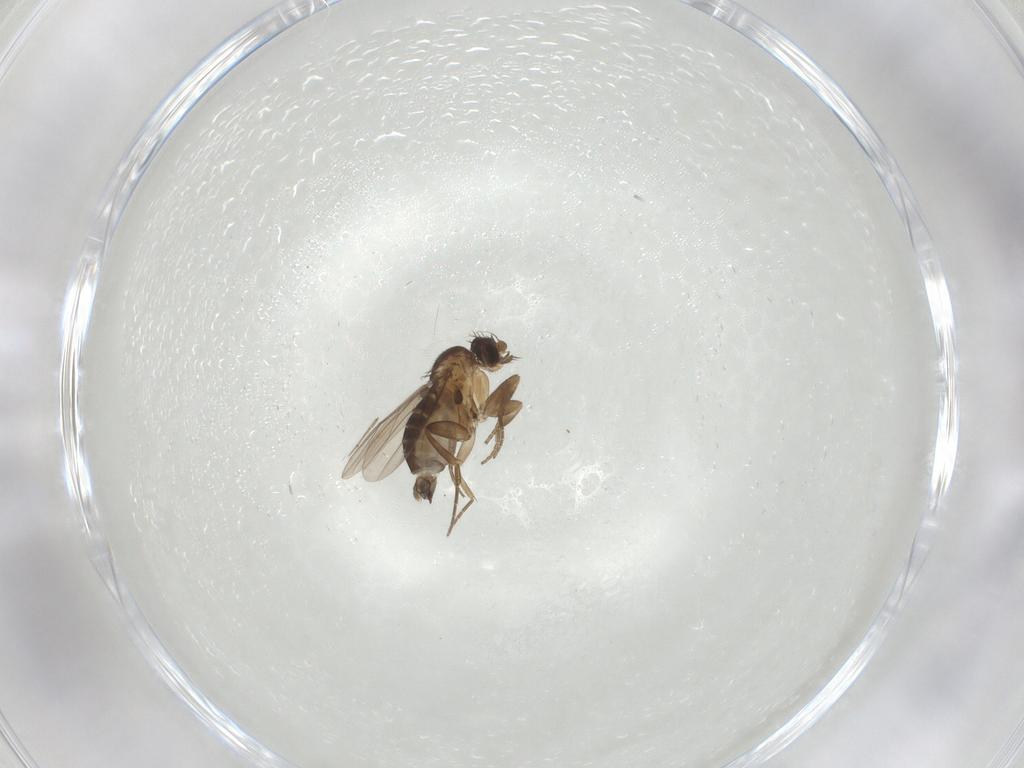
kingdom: Animalia
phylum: Arthropoda
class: Insecta
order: Diptera
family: Phoridae
